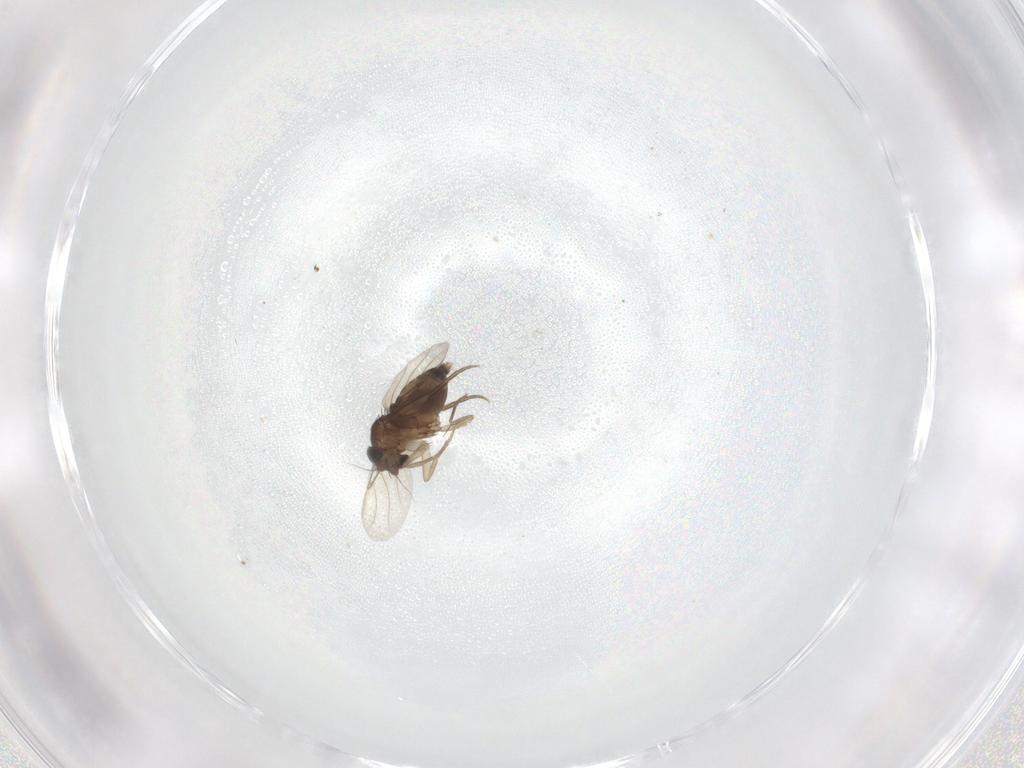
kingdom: Animalia
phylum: Arthropoda
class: Insecta
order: Diptera
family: Phoridae
